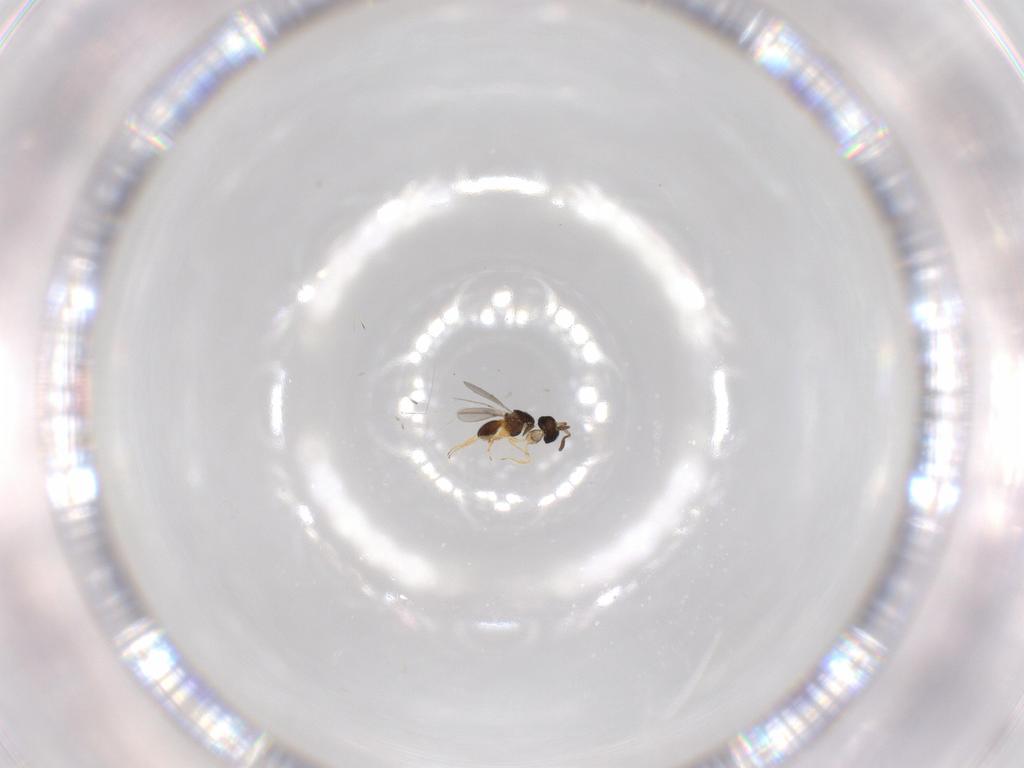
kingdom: Animalia
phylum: Arthropoda
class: Insecta
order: Hymenoptera
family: Scelionidae
